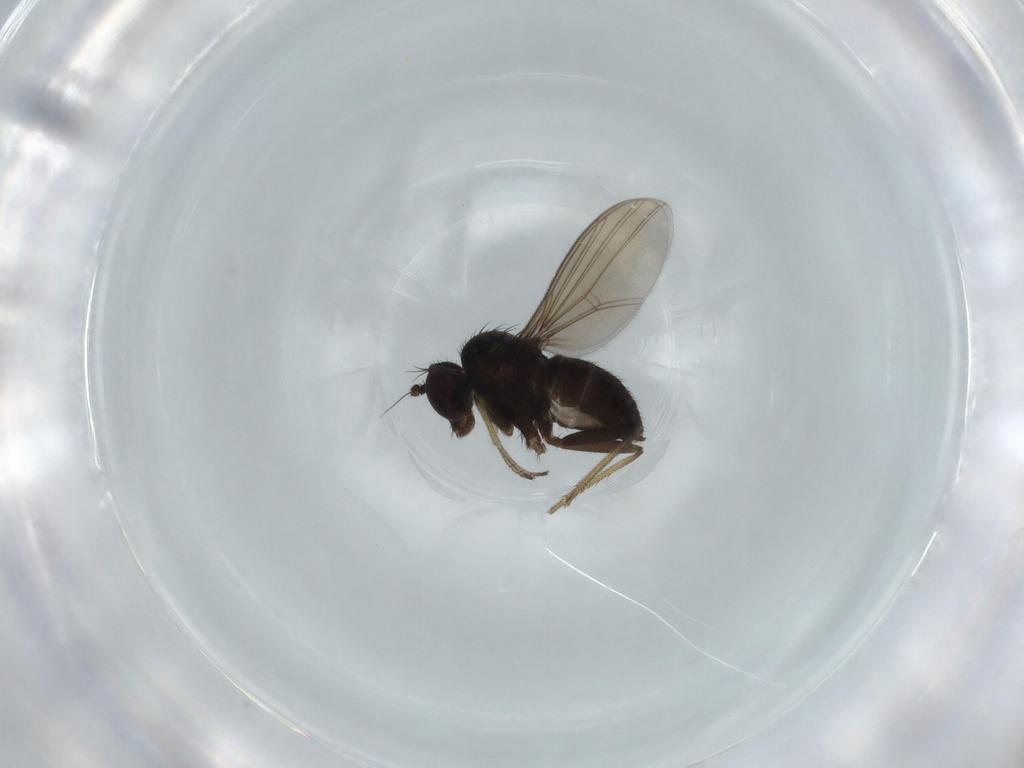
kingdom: Animalia
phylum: Arthropoda
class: Insecta
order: Diptera
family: Dolichopodidae
